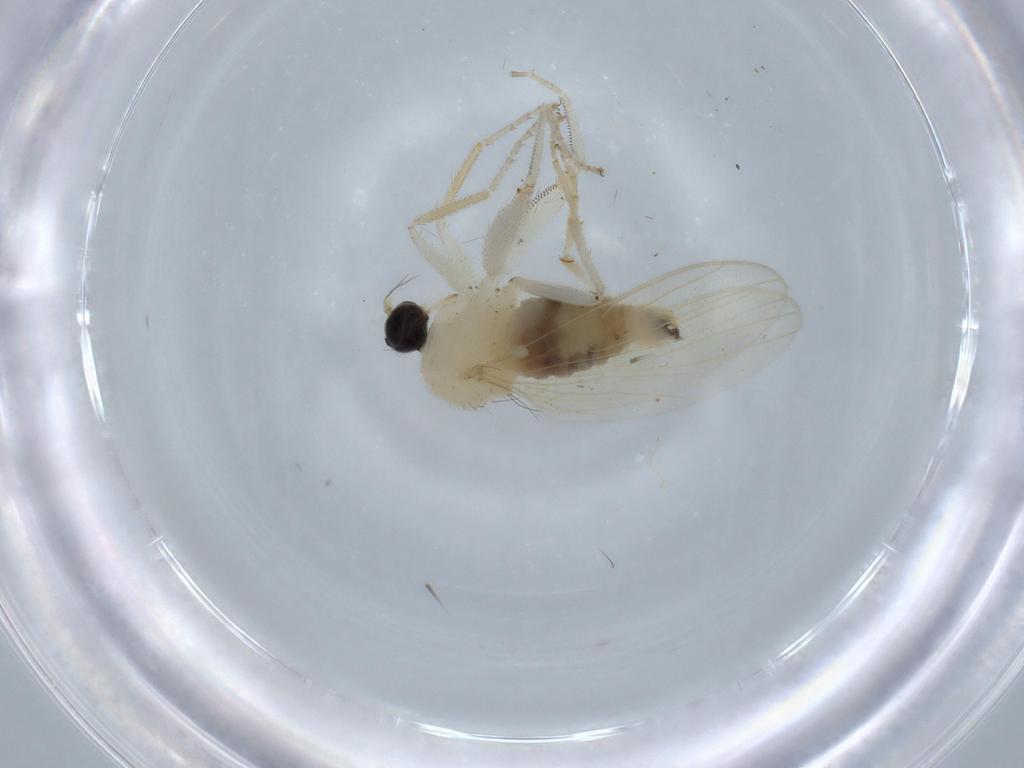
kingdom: Animalia
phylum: Arthropoda
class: Insecta
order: Diptera
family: Hybotidae
